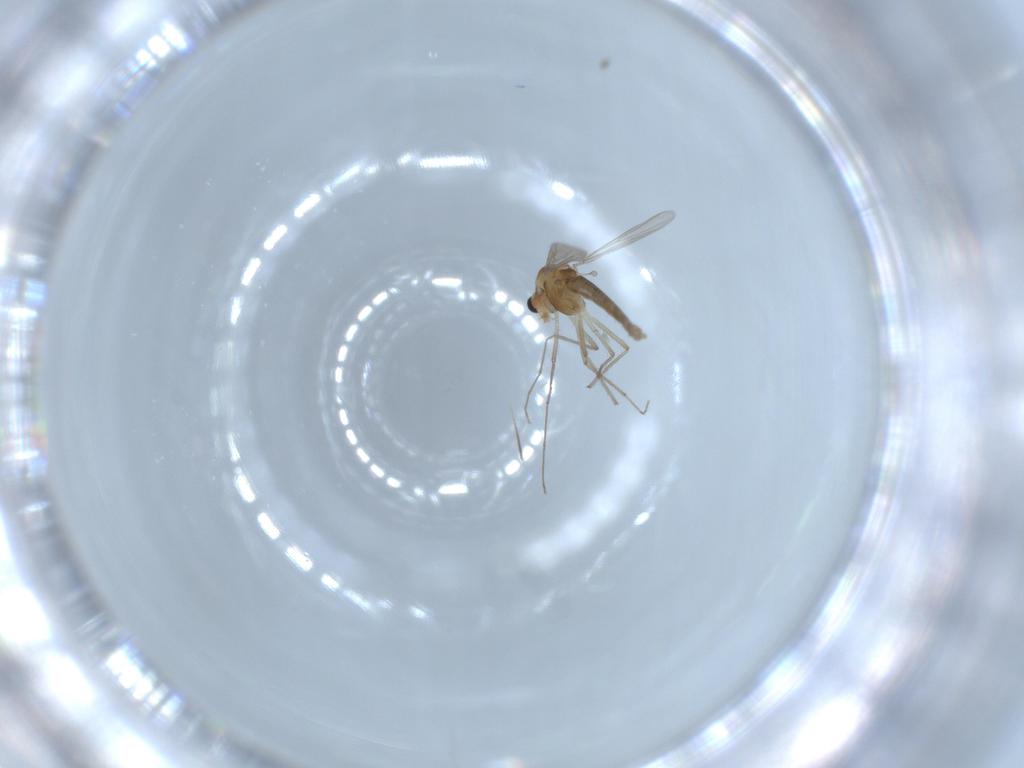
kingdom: Animalia
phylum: Arthropoda
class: Insecta
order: Diptera
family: Chironomidae
